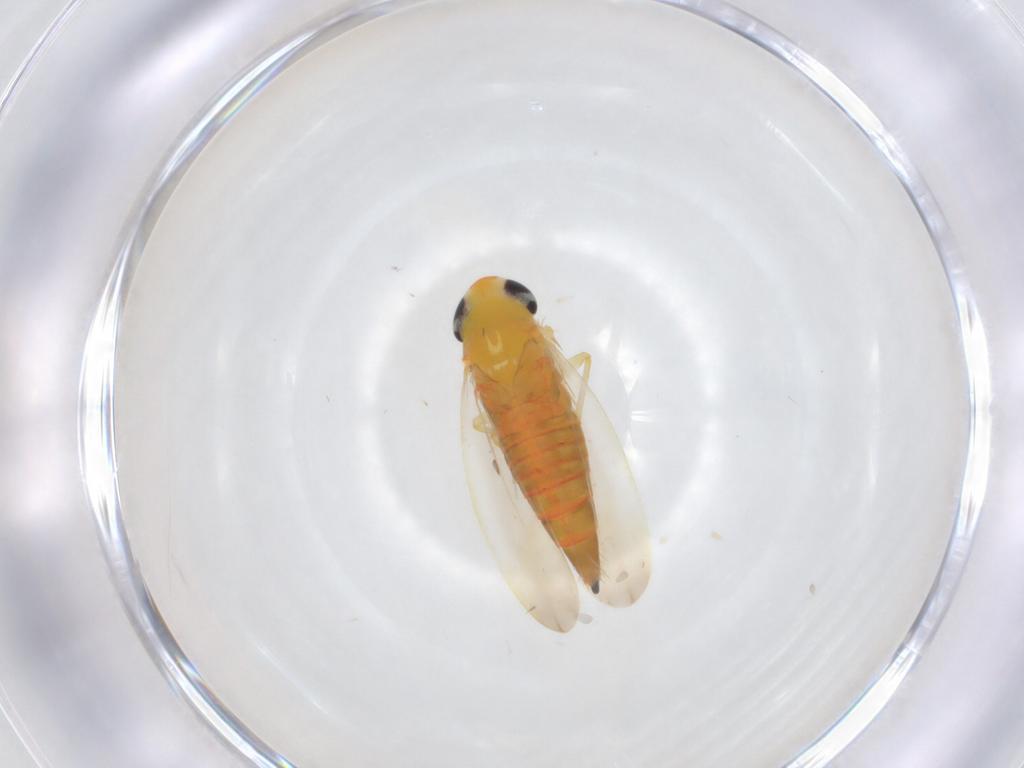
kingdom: Animalia
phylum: Arthropoda
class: Insecta
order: Hemiptera
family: Cicadellidae
